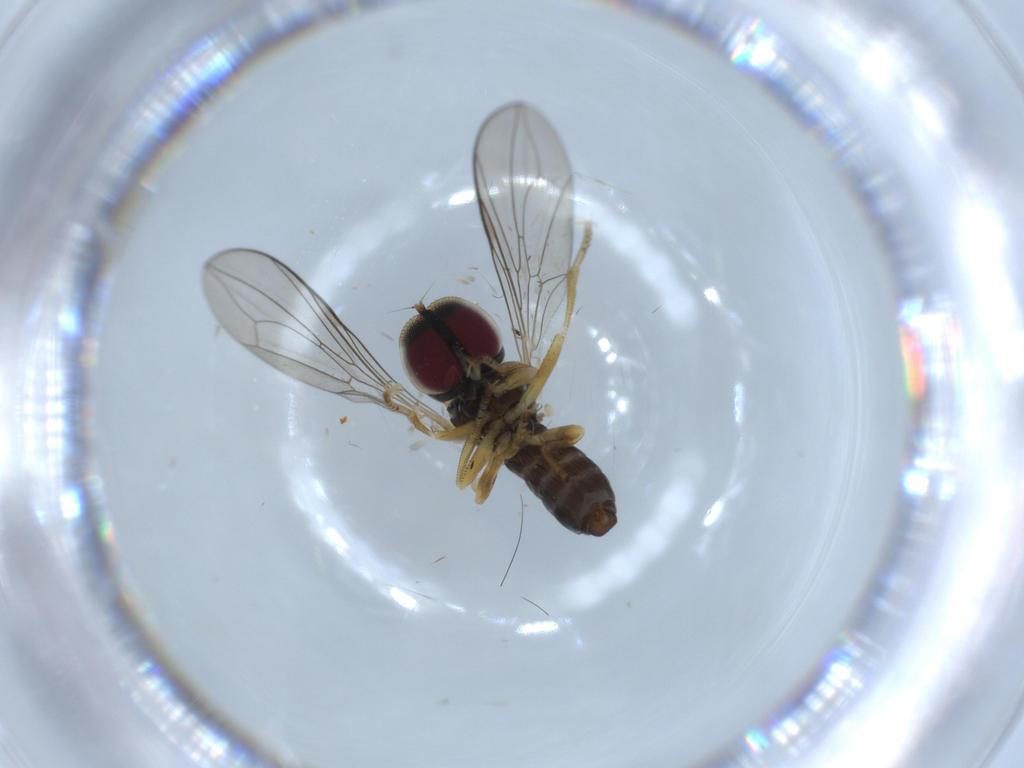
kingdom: Animalia
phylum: Arthropoda
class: Insecta
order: Diptera
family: Pipunculidae
